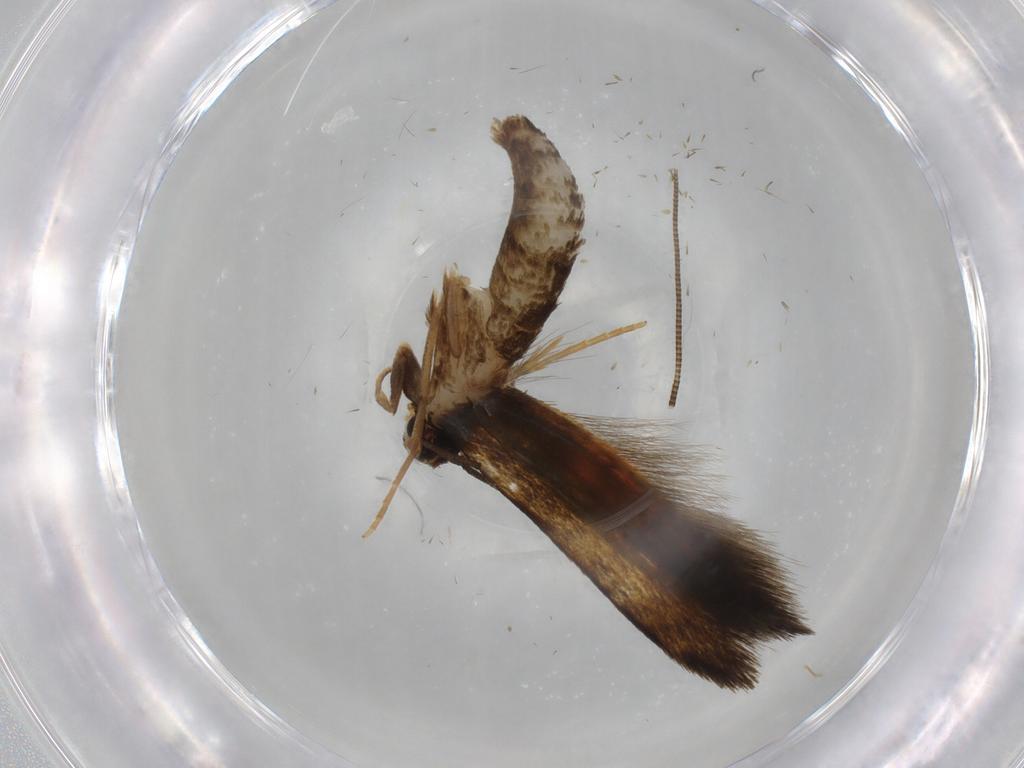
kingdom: Animalia
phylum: Arthropoda
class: Insecta
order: Lepidoptera
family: Tineidae
